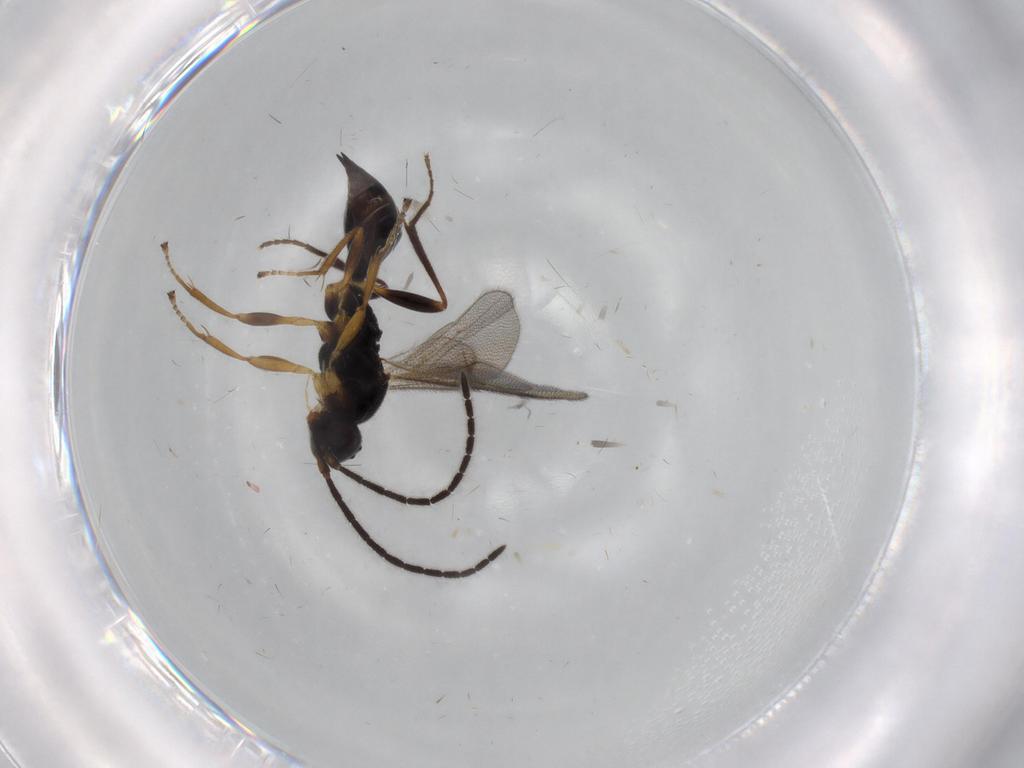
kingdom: Animalia
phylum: Arthropoda
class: Insecta
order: Hymenoptera
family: Proctotrupidae
